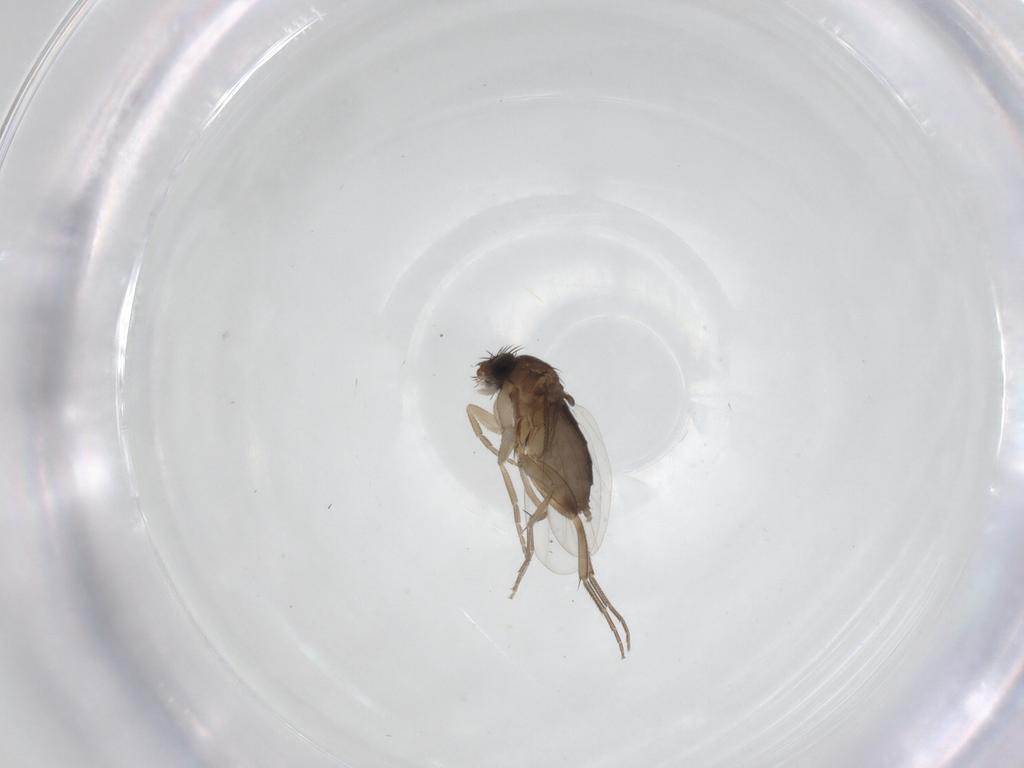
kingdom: Animalia
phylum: Arthropoda
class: Insecta
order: Diptera
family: Phoridae
